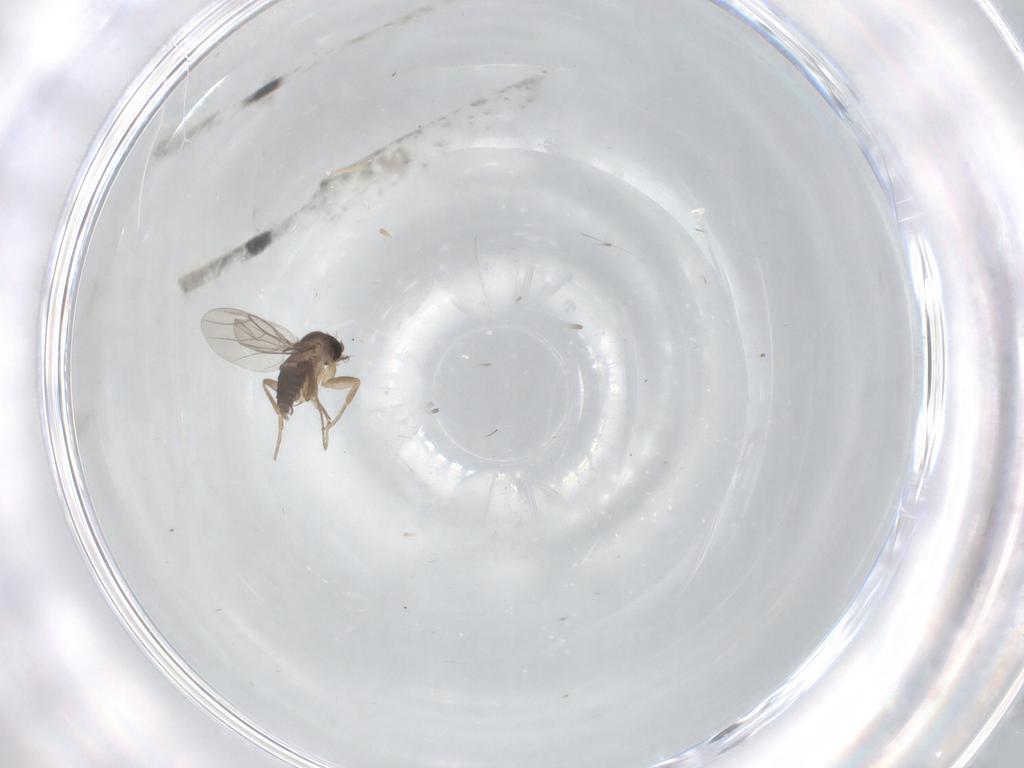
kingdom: Animalia
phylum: Arthropoda
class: Insecta
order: Diptera
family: Phoridae
